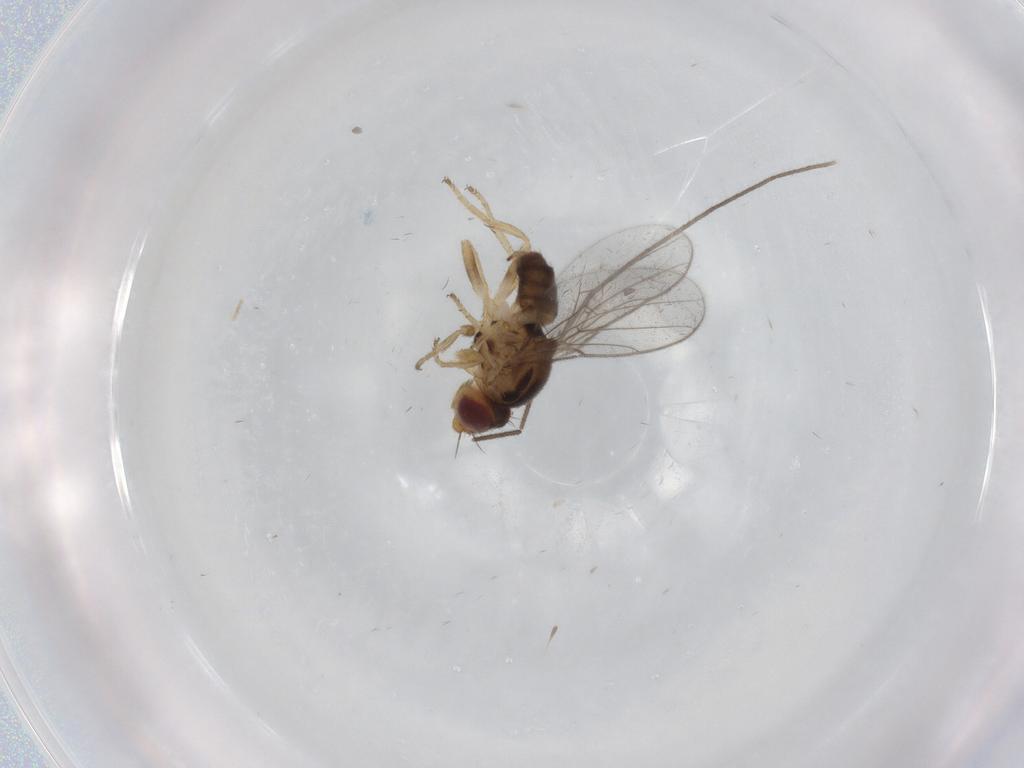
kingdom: Animalia
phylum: Arthropoda
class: Insecta
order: Diptera
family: Chloropidae
